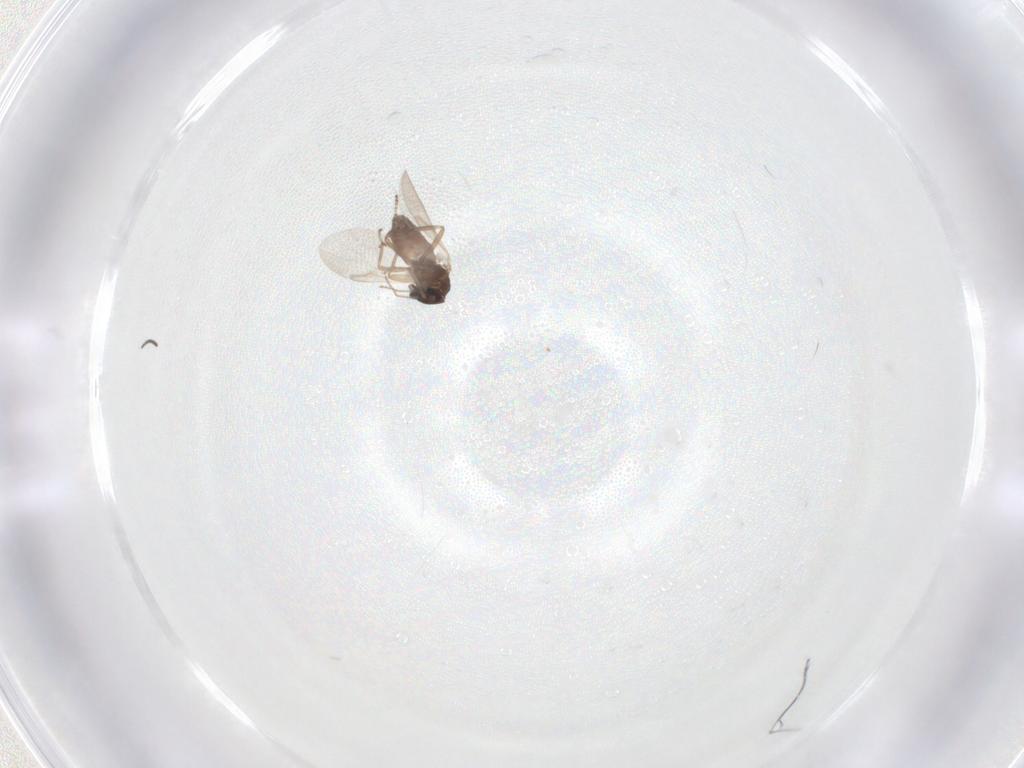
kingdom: Animalia
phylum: Arthropoda
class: Insecta
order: Diptera
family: Ceratopogonidae
